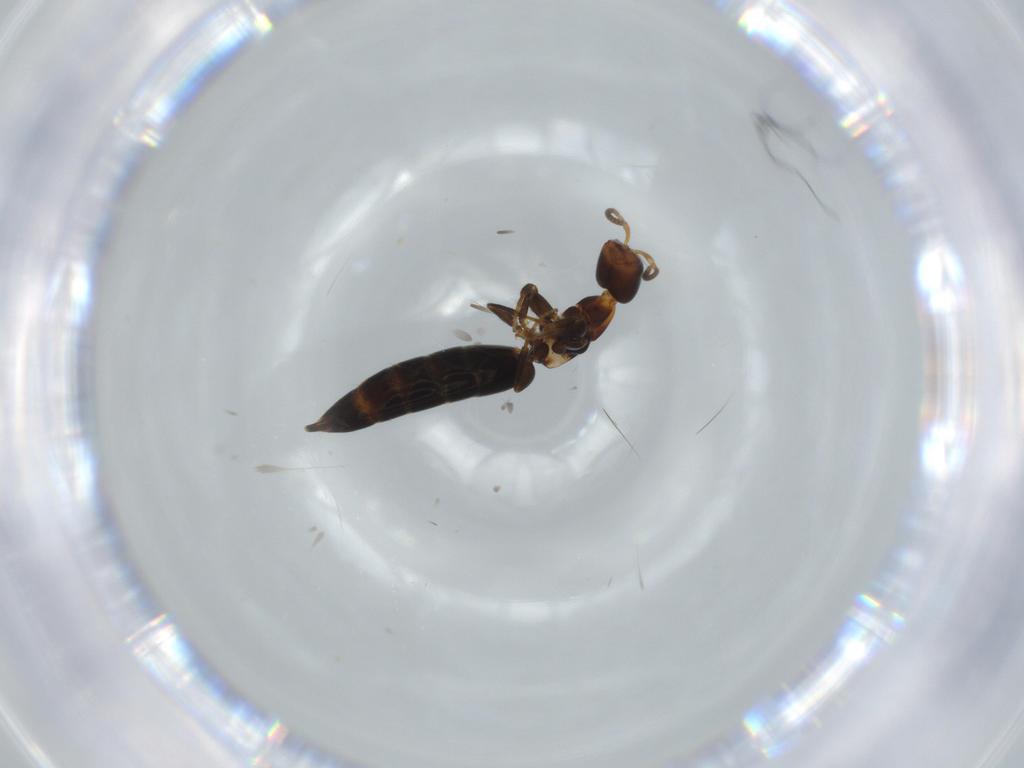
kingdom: Animalia
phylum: Arthropoda
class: Insecta
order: Hymenoptera
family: Bethylidae
